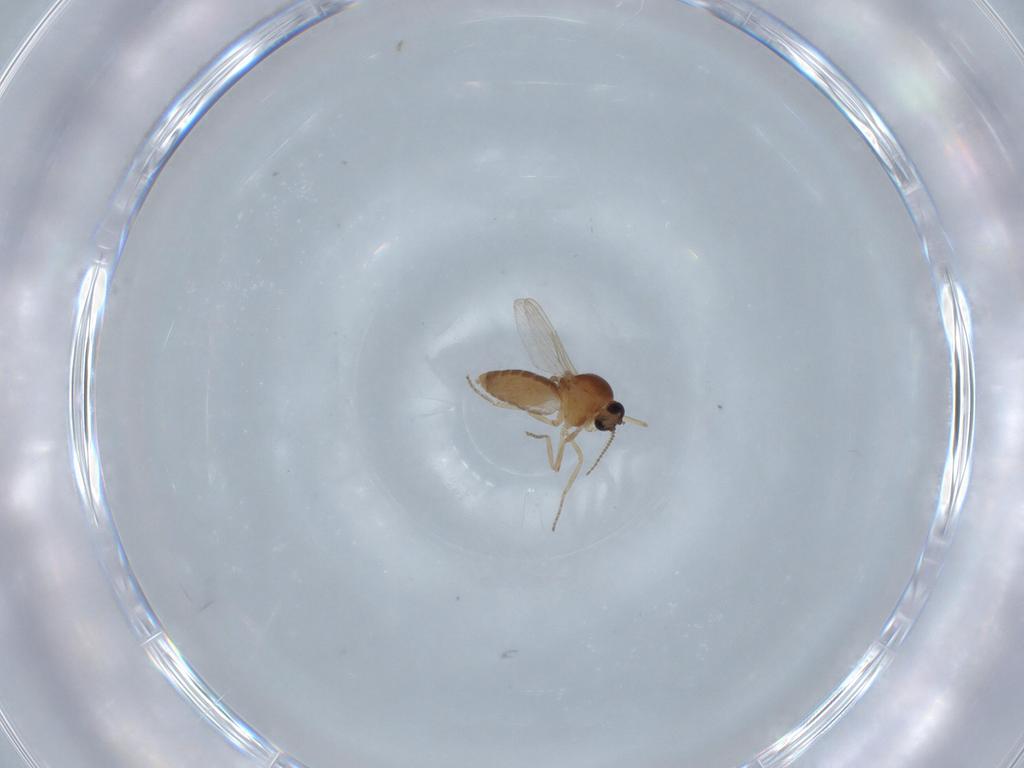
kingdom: Animalia
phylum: Arthropoda
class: Insecta
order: Diptera
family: Ceratopogonidae
